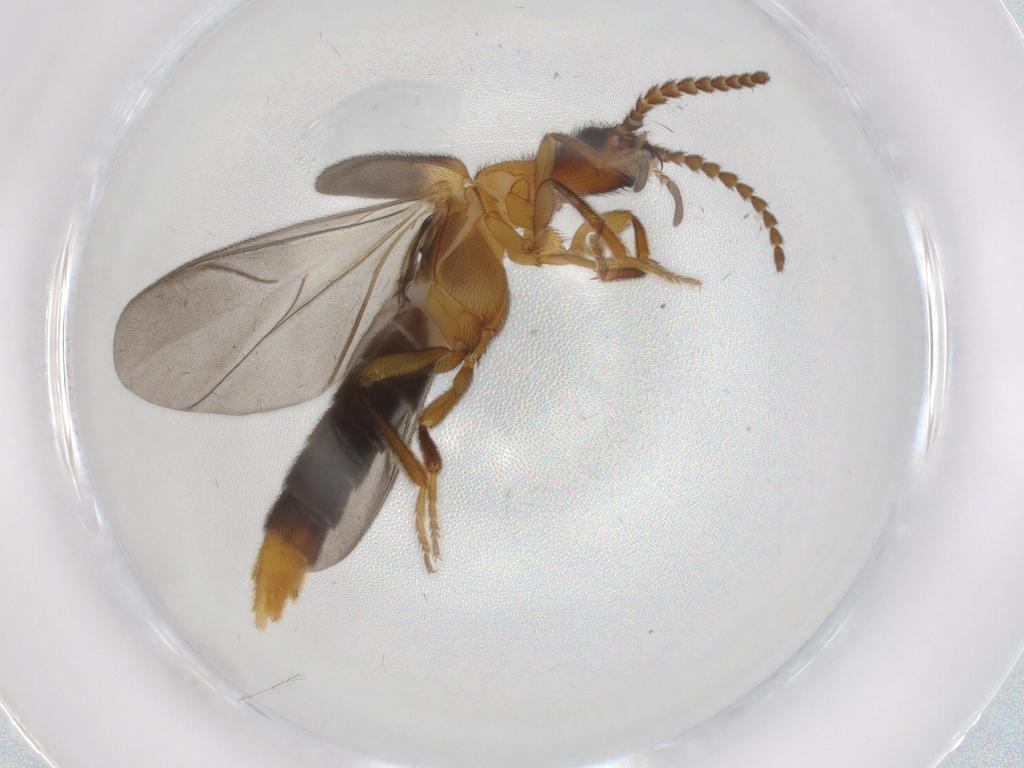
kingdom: Animalia
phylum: Arthropoda
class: Insecta
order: Coleoptera
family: Omethidae
